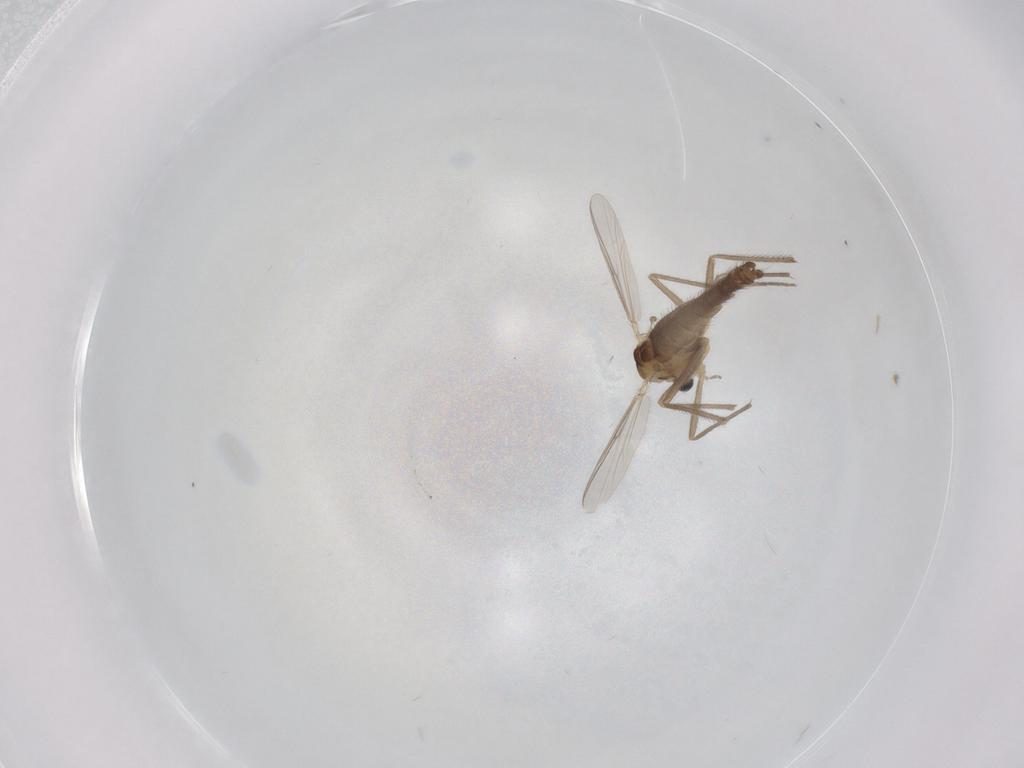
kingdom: Animalia
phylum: Arthropoda
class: Insecta
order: Diptera
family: Chironomidae
